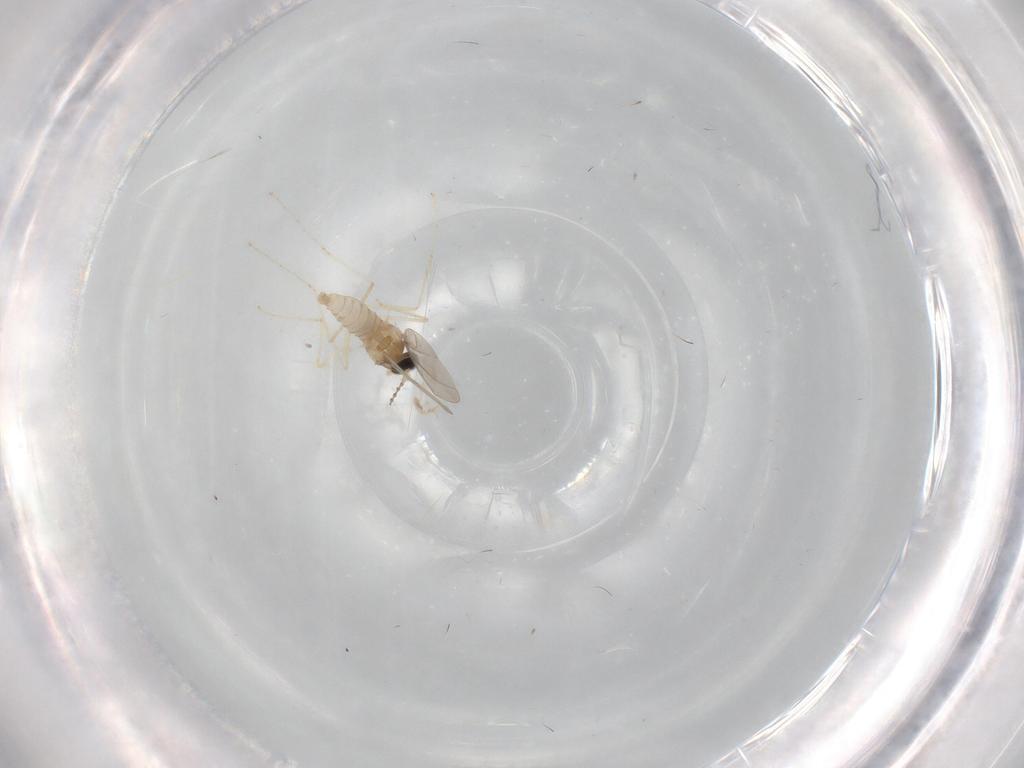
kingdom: Animalia
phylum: Arthropoda
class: Insecta
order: Diptera
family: Cecidomyiidae
